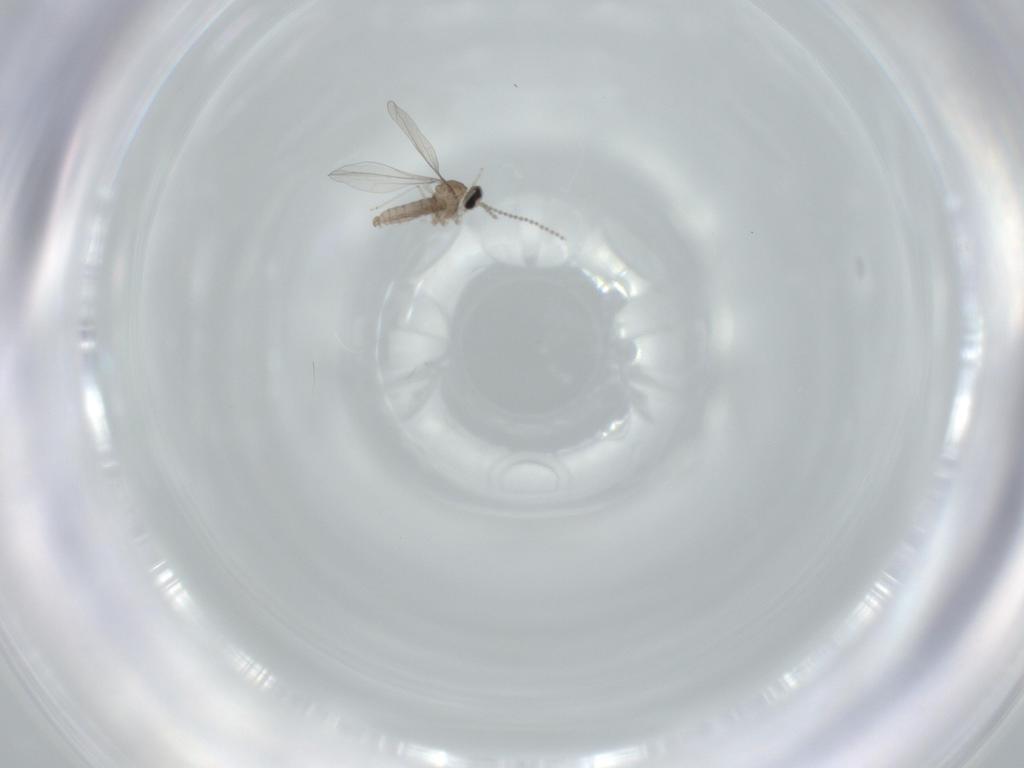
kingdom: Animalia
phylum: Arthropoda
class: Insecta
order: Diptera
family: Cecidomyiidae
